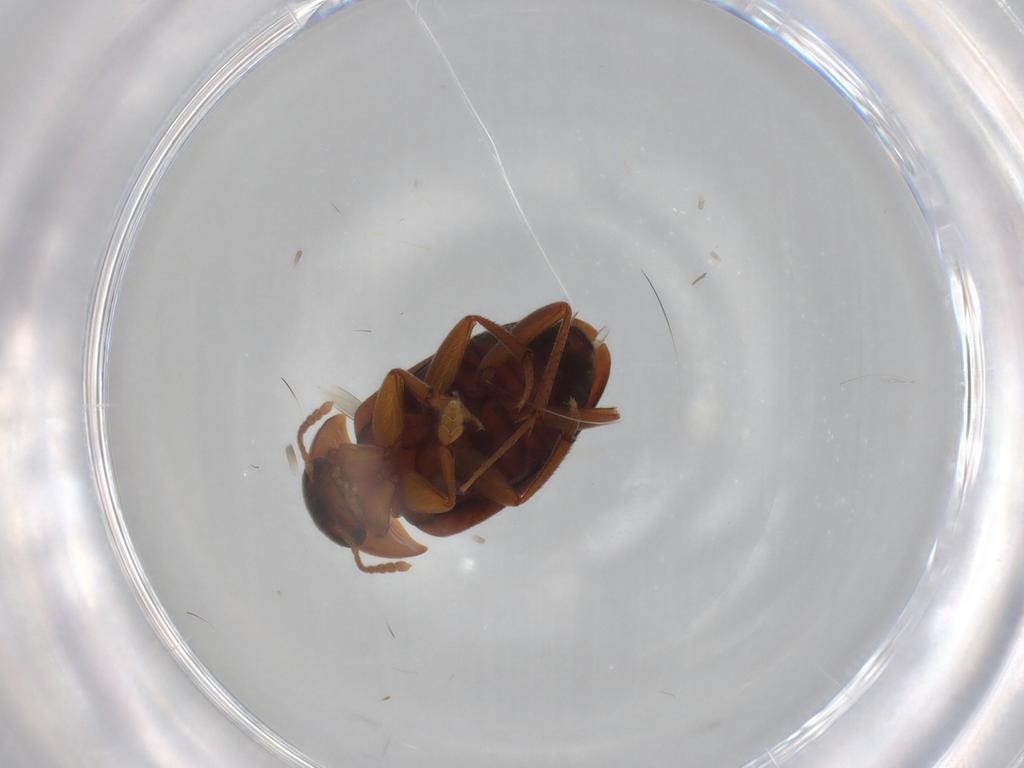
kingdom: Animalia
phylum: Arthropoda
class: Insecta
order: Coleoptera
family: Leiodidae
